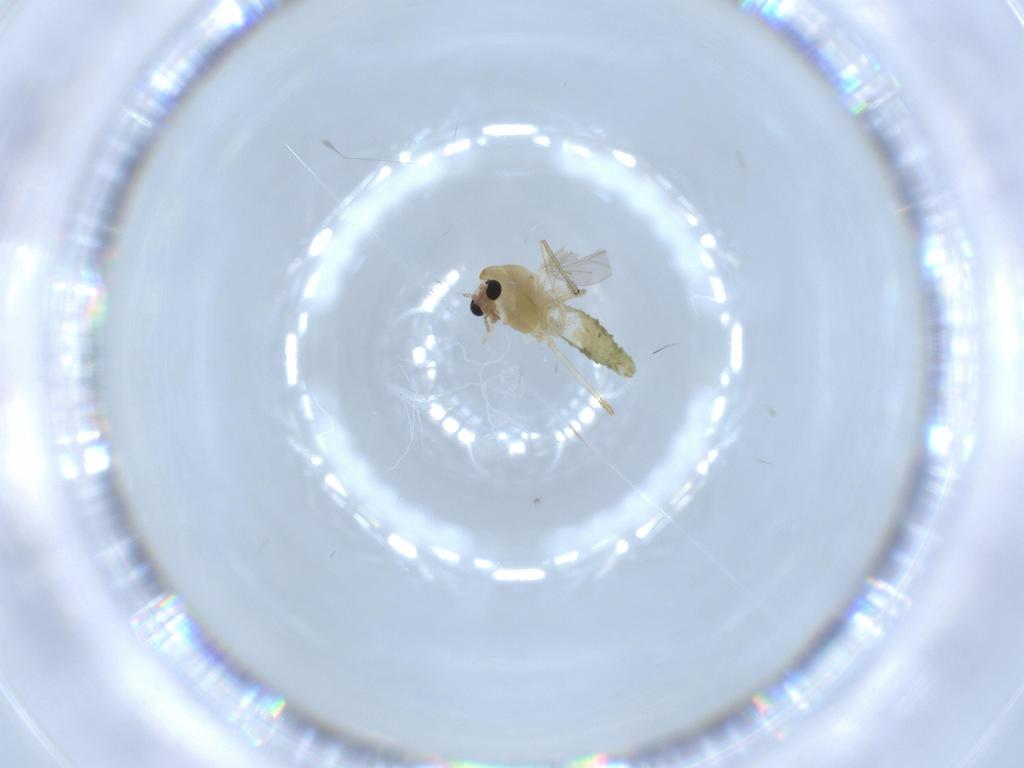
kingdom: Animalia
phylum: Arthropoda
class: Insecta
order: Diptera
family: Chironomidae
